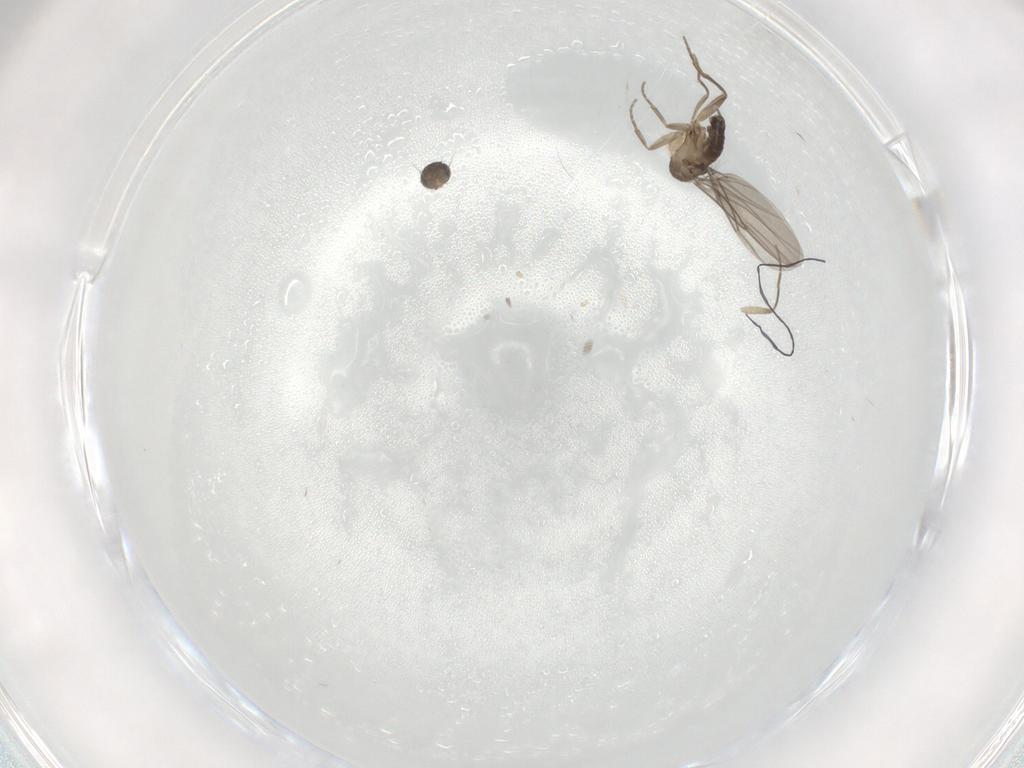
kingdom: Animalia
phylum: Arthropoda
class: Insecta
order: Diptera
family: Phoridae
